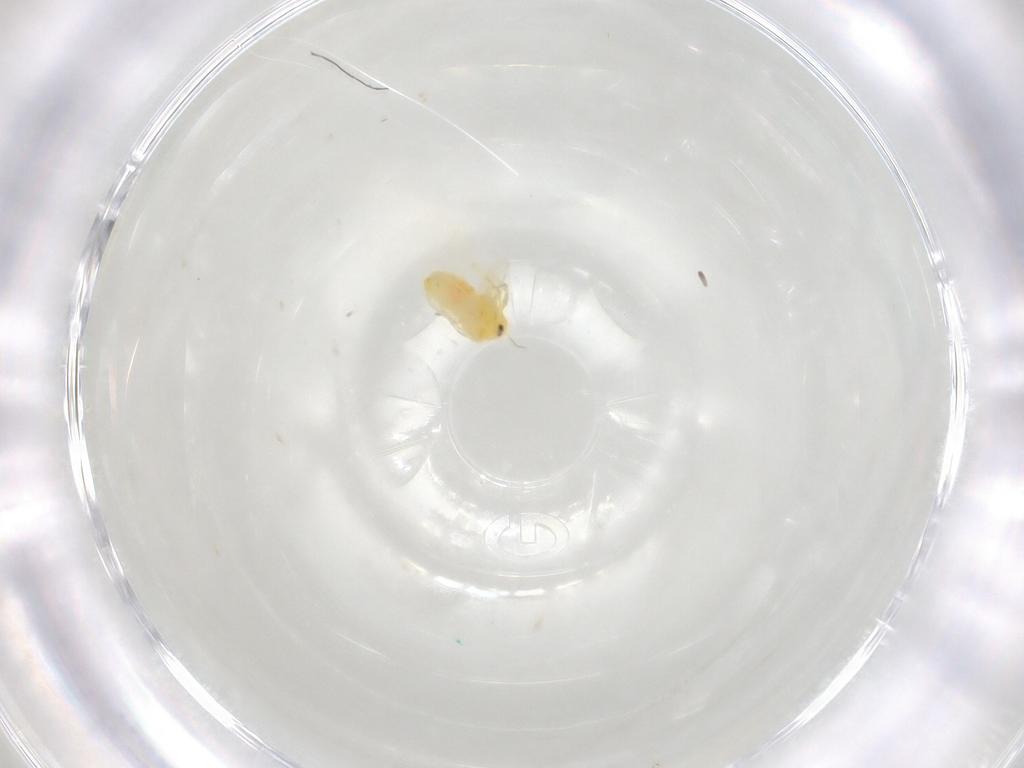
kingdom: Animalia
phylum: Arthropoda
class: Insecta
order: Hemiptera
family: Aleyrodidae
